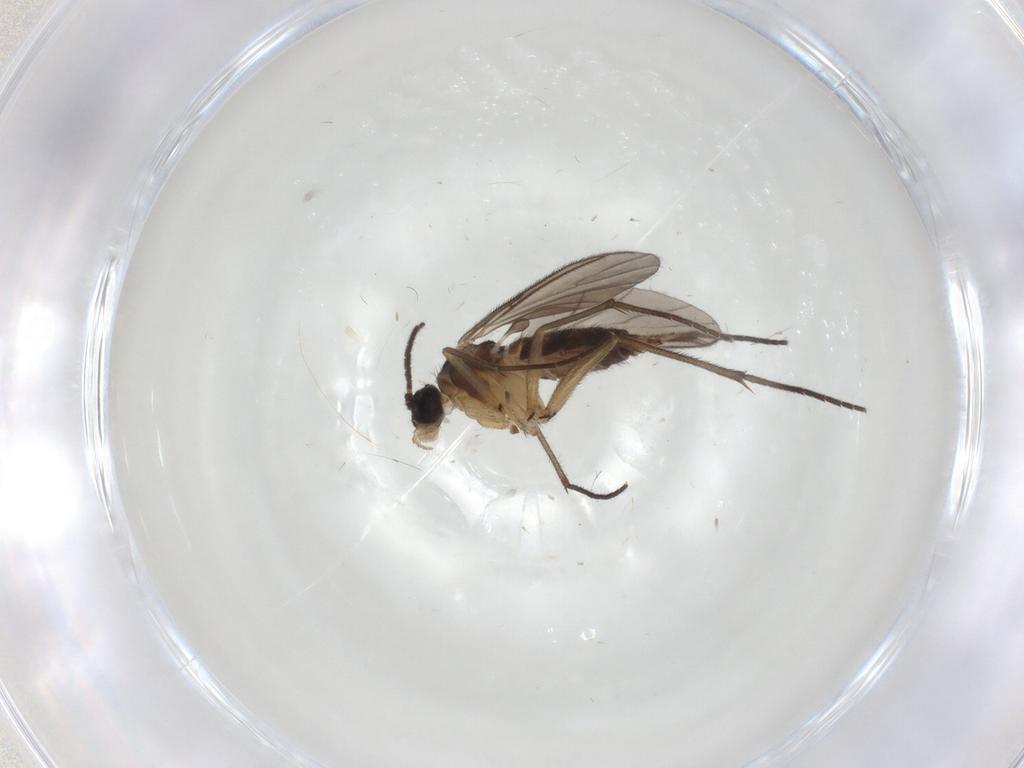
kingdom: Animalia
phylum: Arthropoda
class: Insecta
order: Diptera
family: Sciaridae
